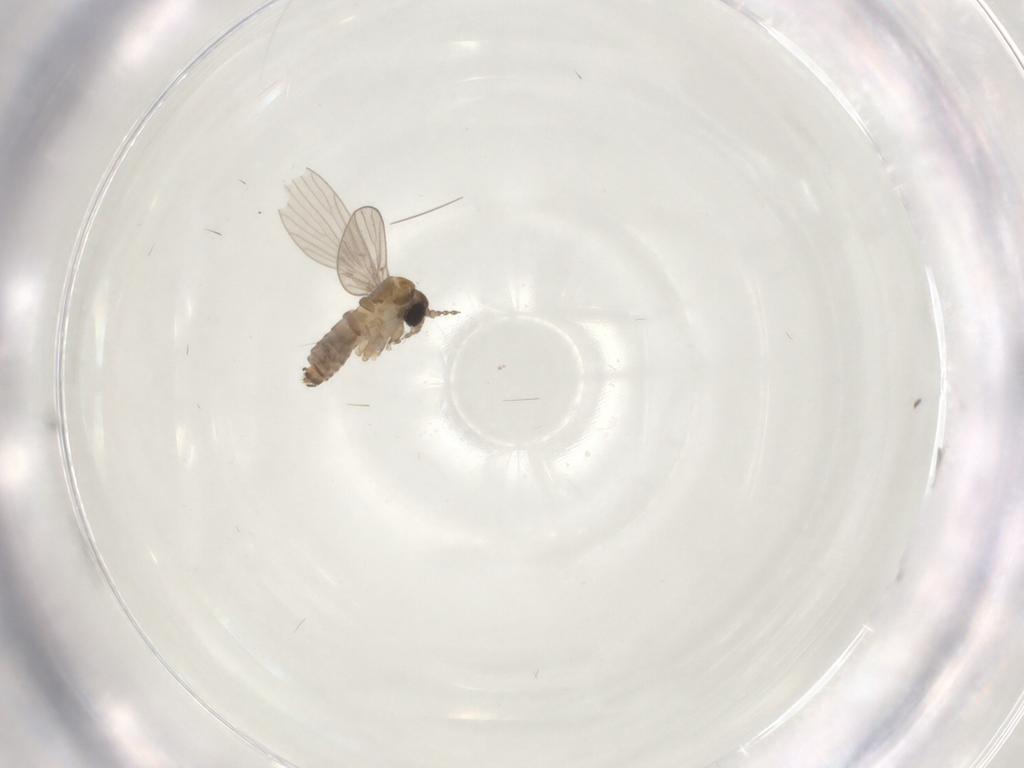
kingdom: Animalia
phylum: Arthropoda
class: Insecta
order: Diptera
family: Psychodidae
